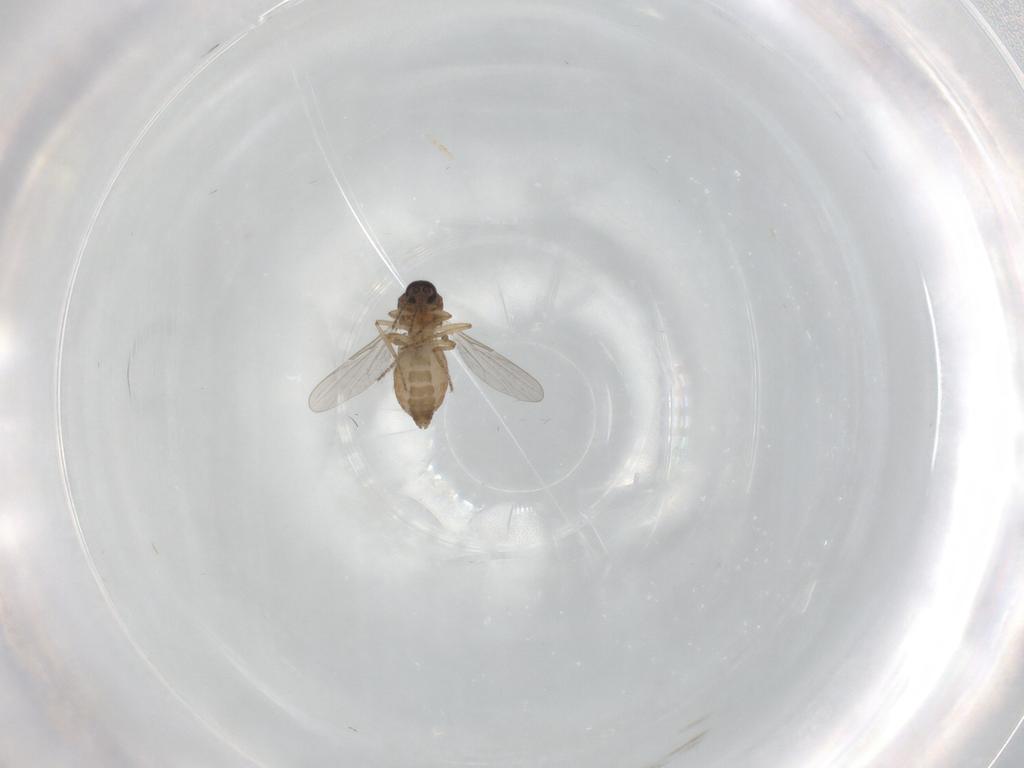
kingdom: Animalia
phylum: Arthropoda
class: Insecta
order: Diptera
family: Ceratopogonidae
